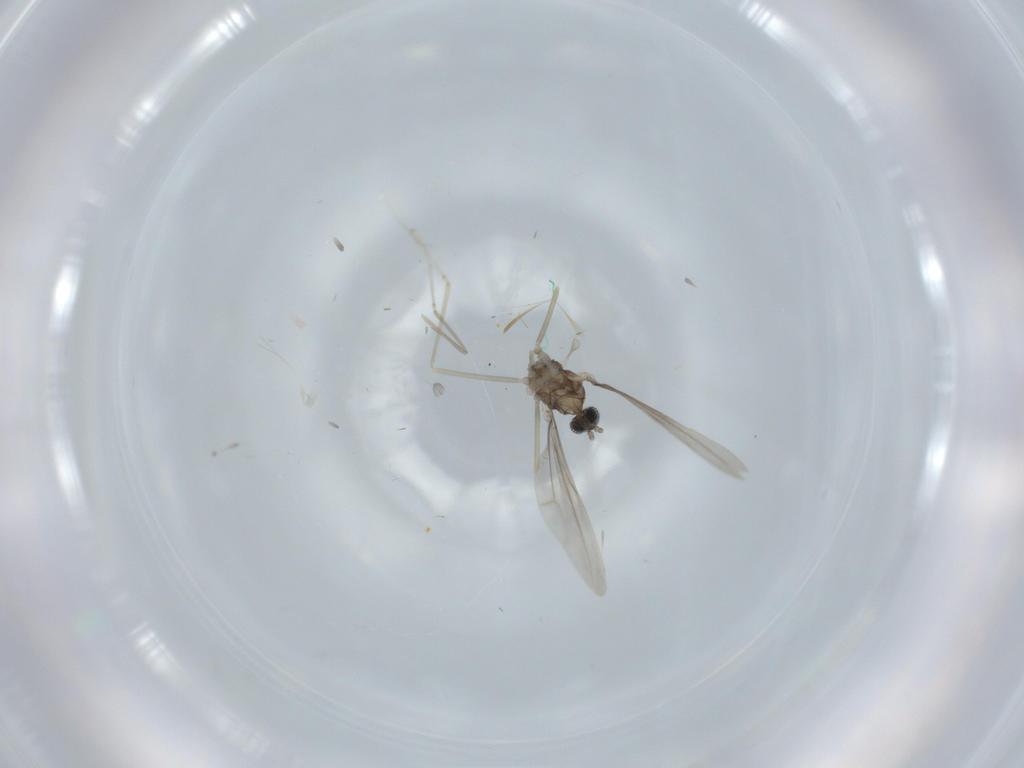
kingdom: Animalia
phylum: Arthropoda
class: Insecta
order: Diptera
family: Cecidomyiidae
